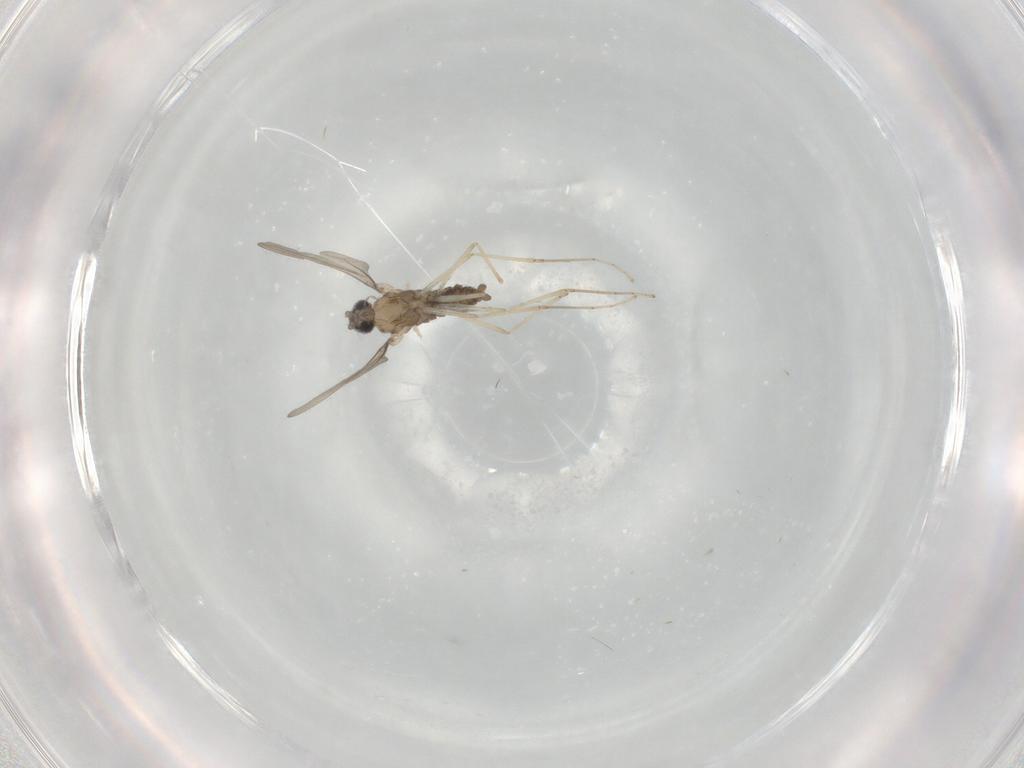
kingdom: Animalia
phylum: Arthropoda
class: Insecta
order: Diptera
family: Cecidomyiidae
